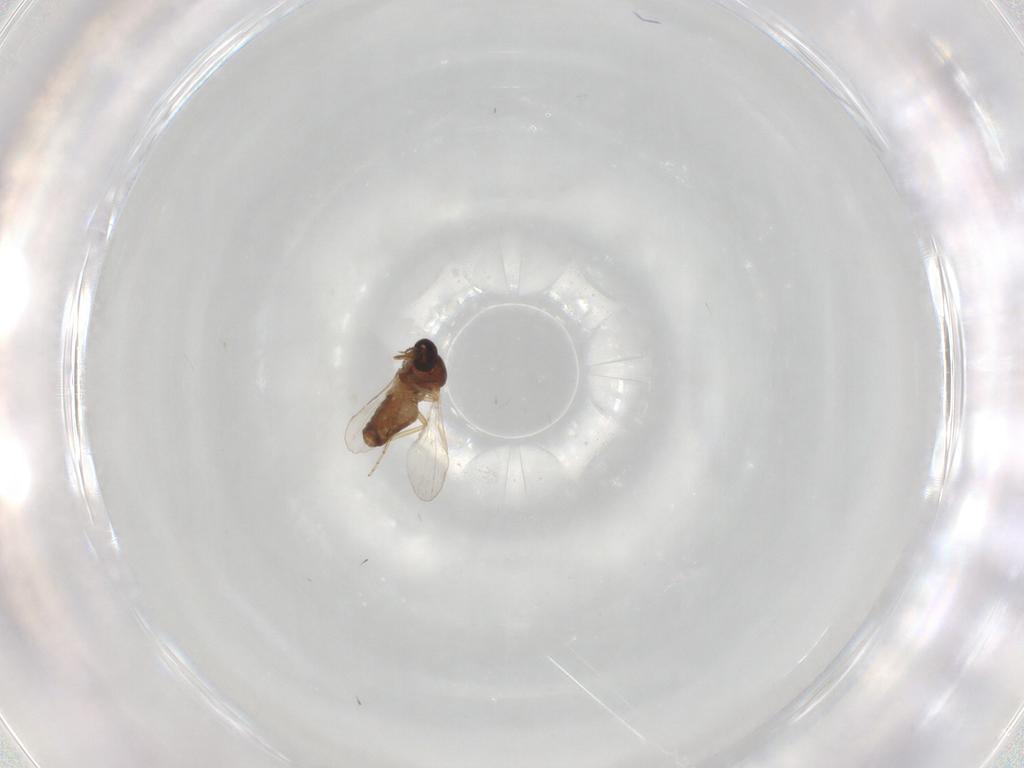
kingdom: Animalia
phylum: Arthropoda
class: Insecta
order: Diptera
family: Ceratopogonidae
